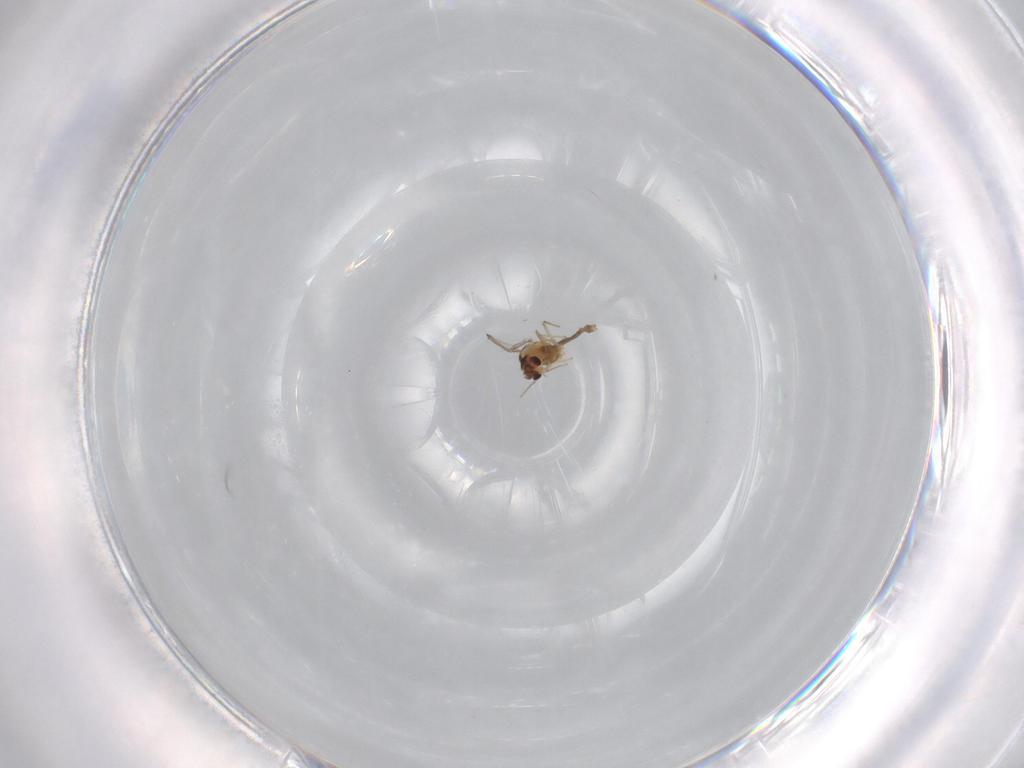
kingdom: Animalia
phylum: Arthropoda
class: Insecta
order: Diptera
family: Chironomidae
